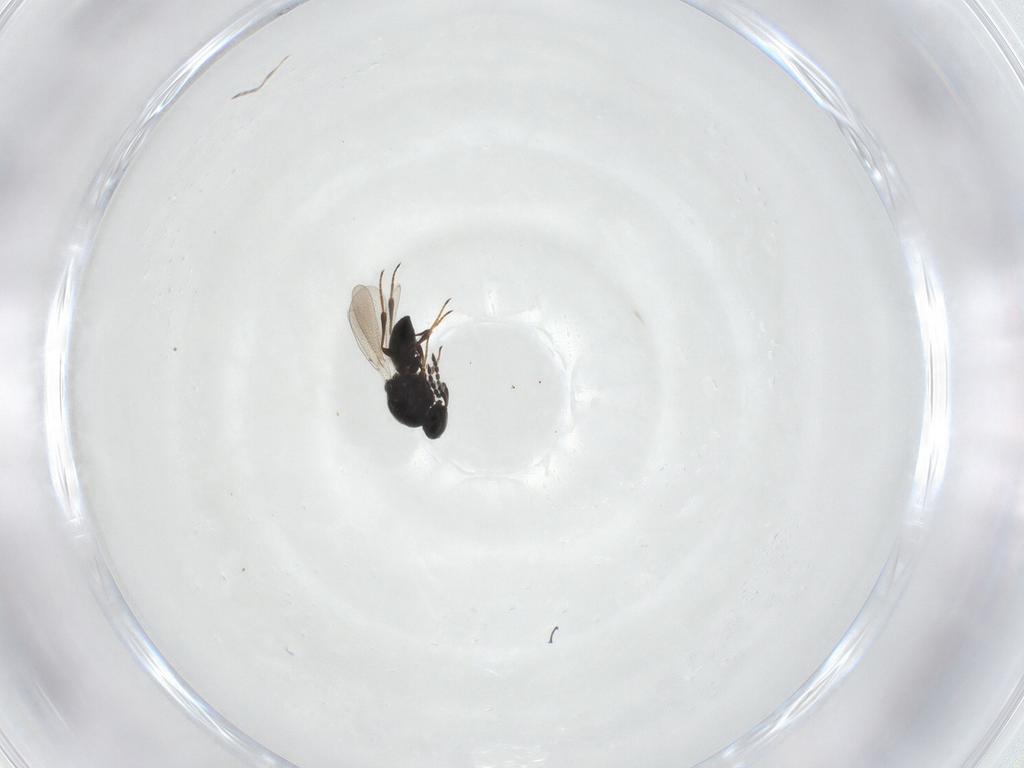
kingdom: Animalia
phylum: Arthropoda
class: Insecta
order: Hymenoptera
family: Platygastridae
